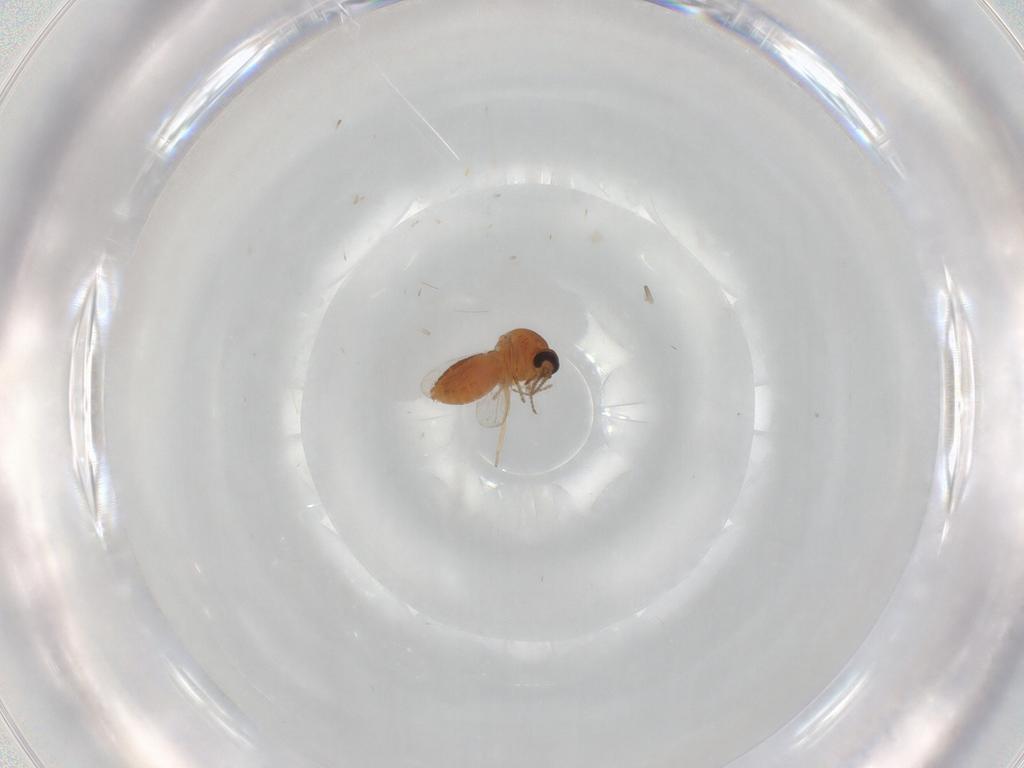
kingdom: Animalia
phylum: Arthropoda
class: Insecta
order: Diptera
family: Ceratopogonidae
